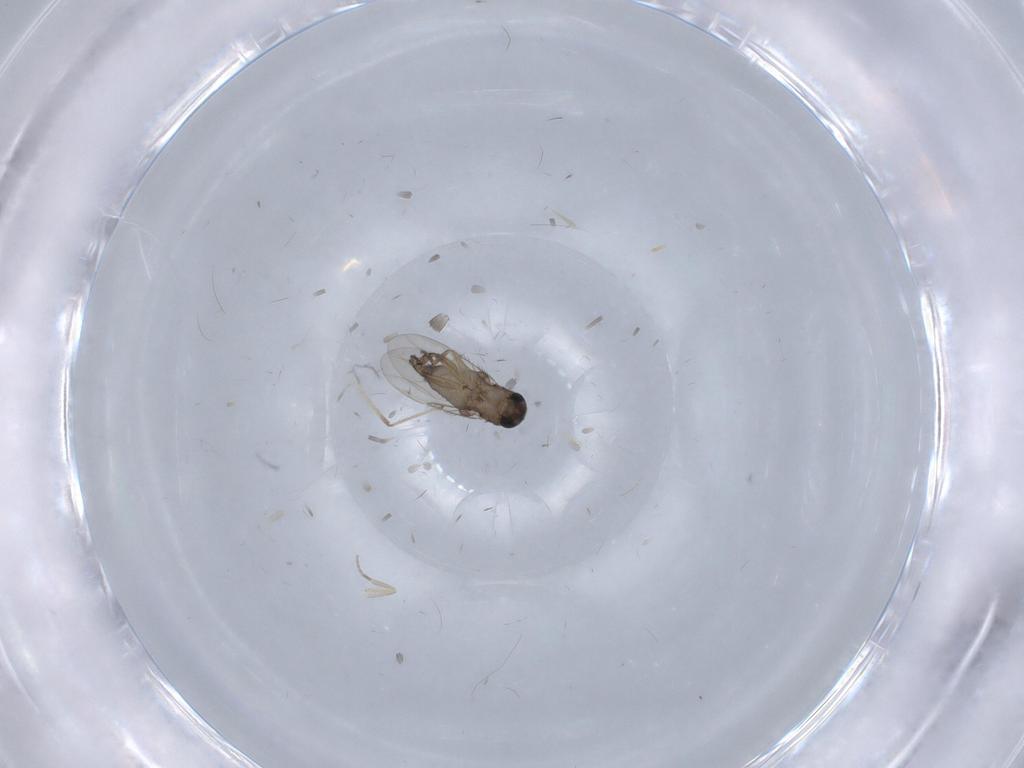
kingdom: Animalia
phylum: Arthropoda
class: Insecta
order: Diptera
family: Phoridae
